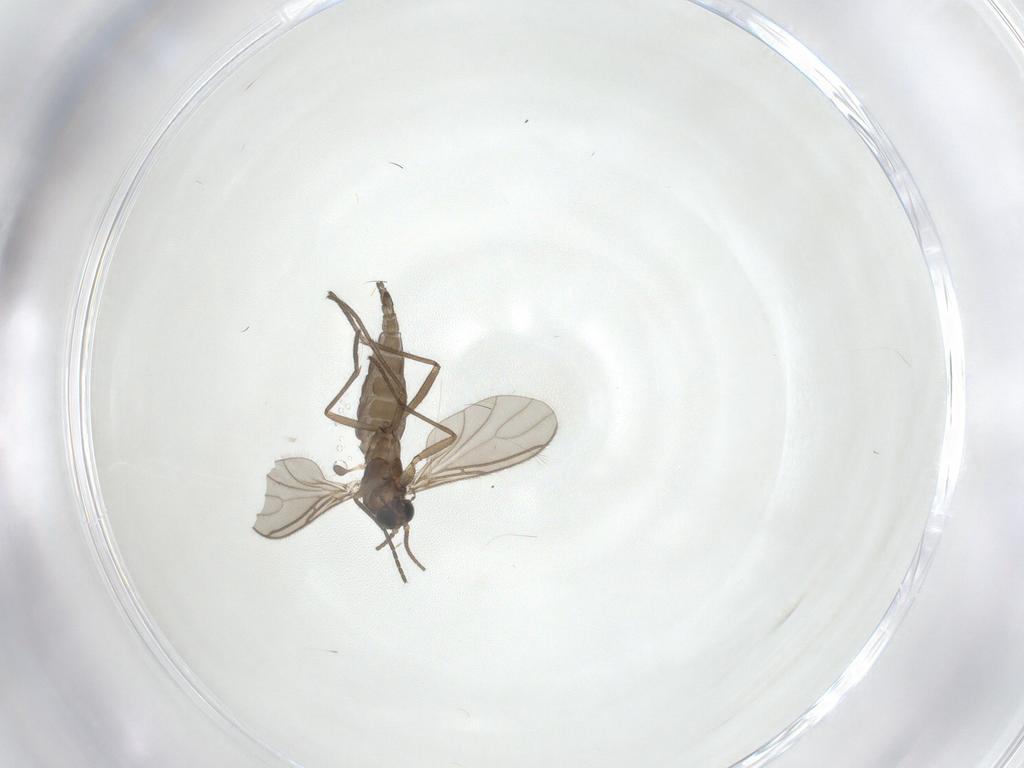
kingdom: Animalia
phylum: Arthropoda
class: Insecta
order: Diptera
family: Sciaridae
